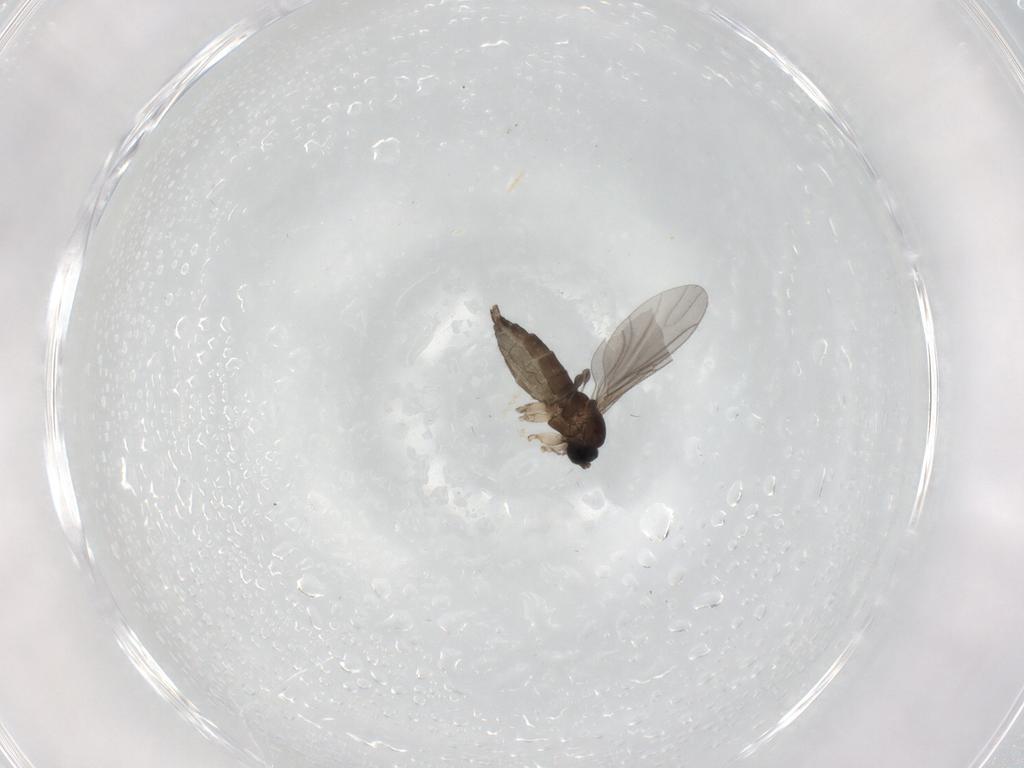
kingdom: Animalia
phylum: Arthropoda
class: Insecta
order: Diptera
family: Sciaridae
